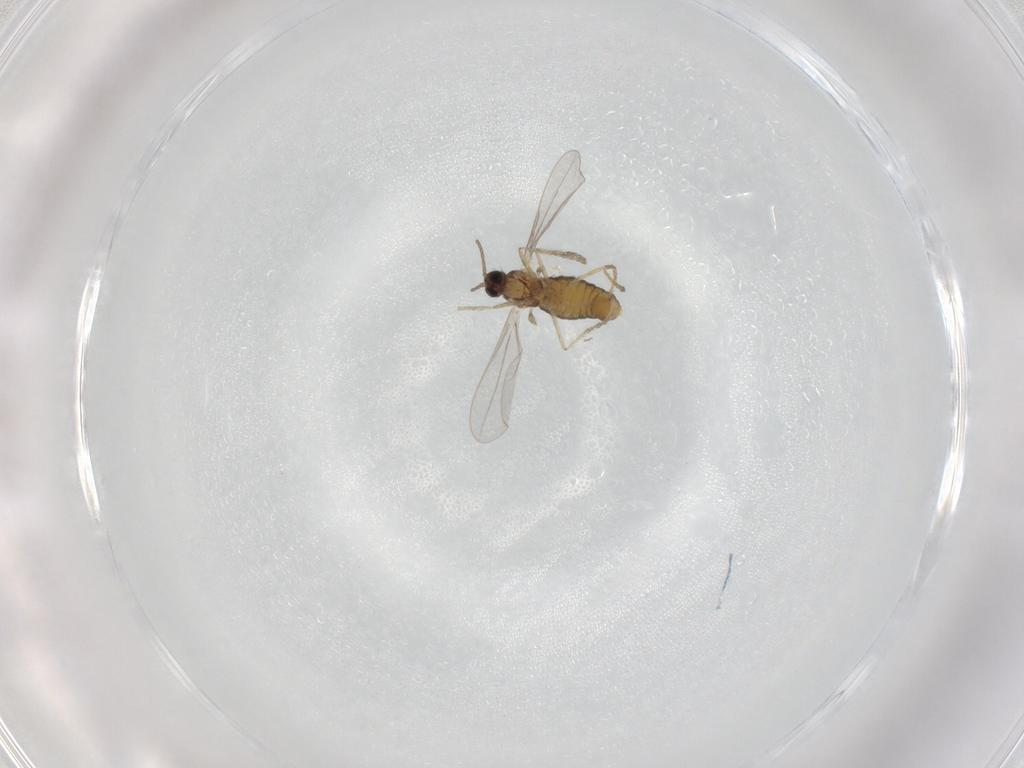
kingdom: Animalia
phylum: Arthropoda
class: Insecta
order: Diptera
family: Cecidomyiidae
